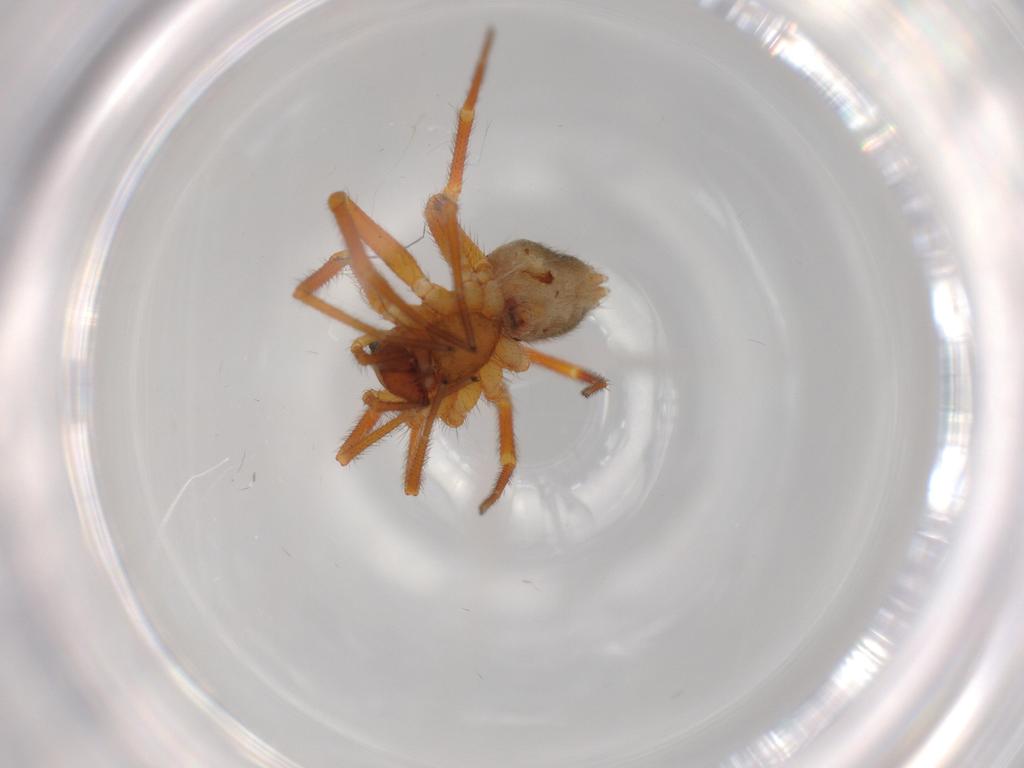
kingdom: Animalia
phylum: Arthropoda
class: Arachnida
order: Araneae
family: Linyphiidae
